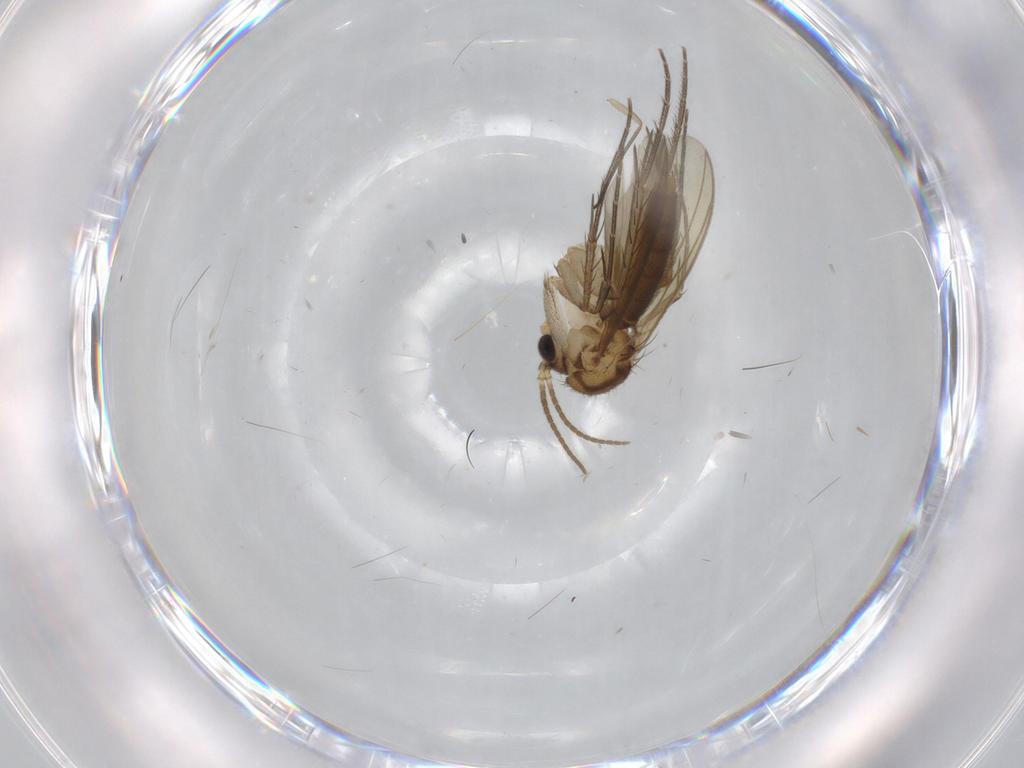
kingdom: Animalia
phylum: Arthropoda
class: Insecta
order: Diptera
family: Mycetophilidae
